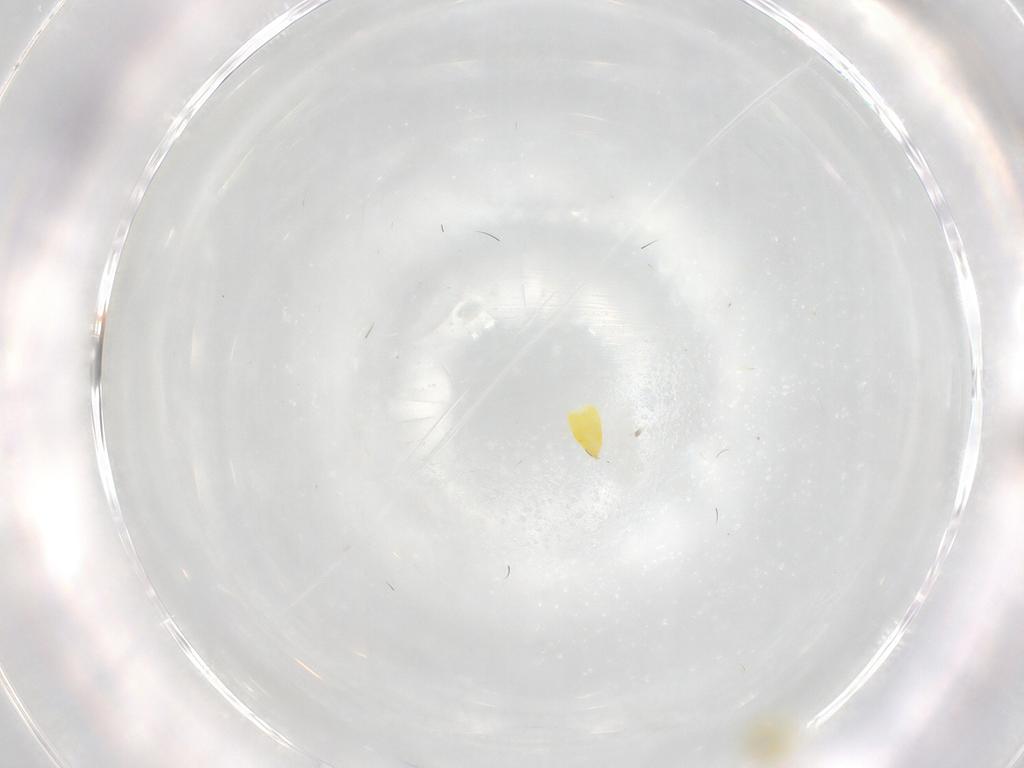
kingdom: Animalia
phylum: Arthropoda
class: Insecta
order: Hemiptera
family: Aleyrodidae
